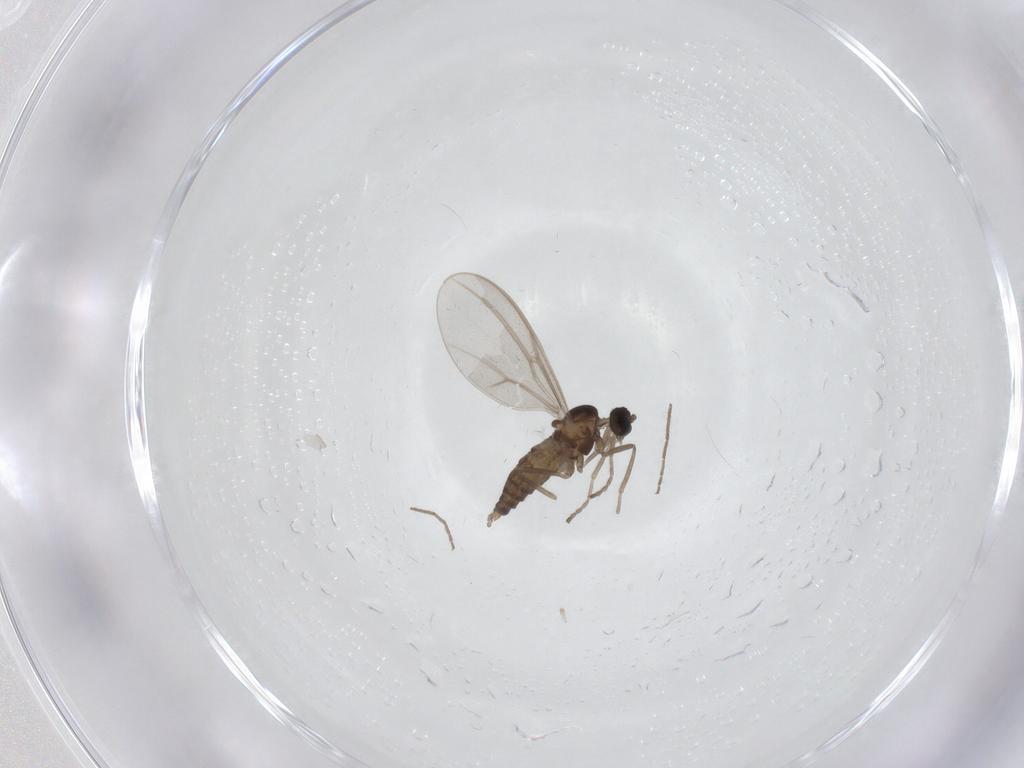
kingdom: Animalia
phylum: Arthropoda
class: Insecta
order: Diptera
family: Cecidomyiidae
